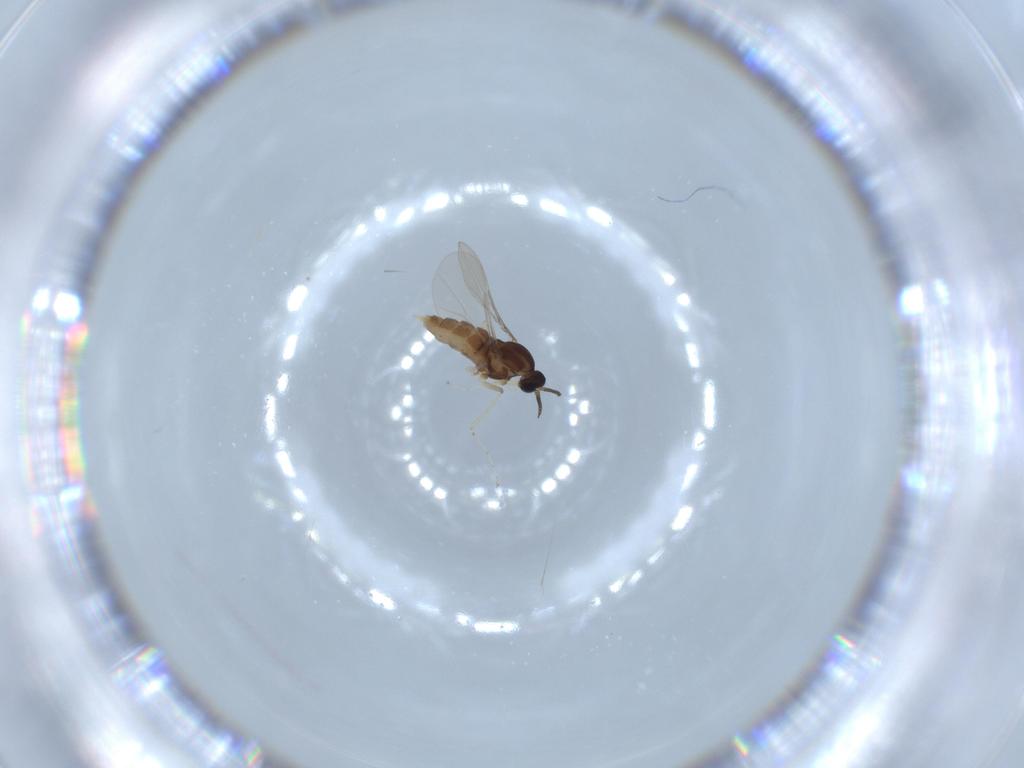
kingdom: Animalia
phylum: Arthropoda
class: Insecta
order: Diptera
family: Cecidomyiidae
